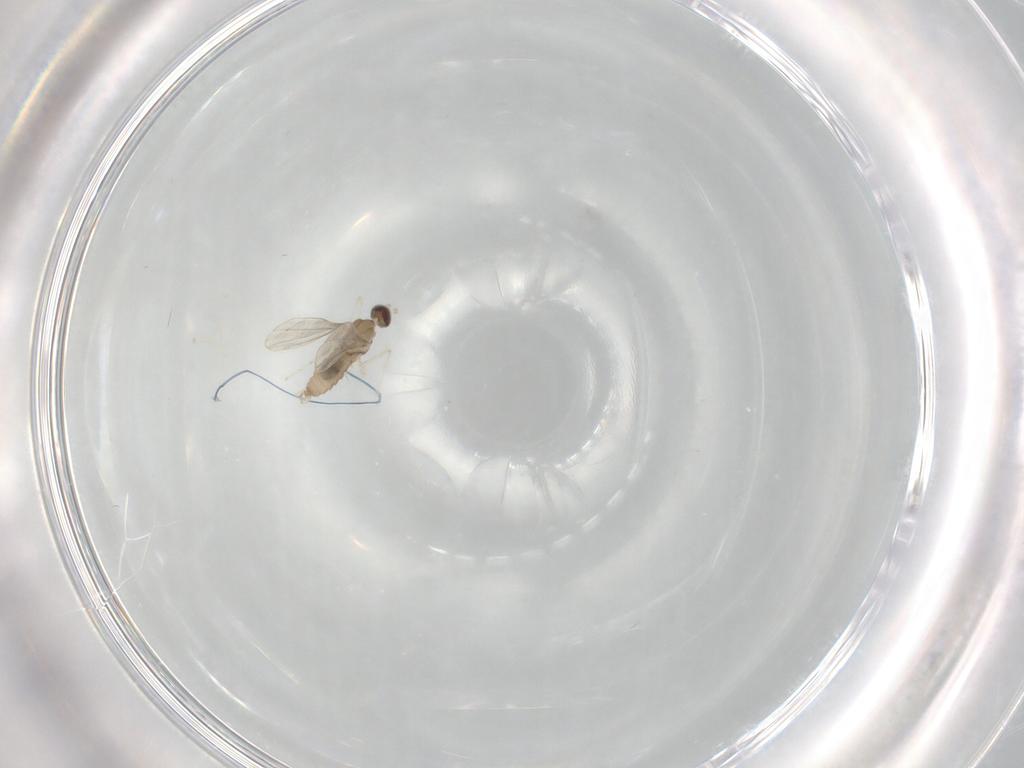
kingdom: Animalia
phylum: Arthropoda
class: Insecta
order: Diptera
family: Cecidomyiidae
